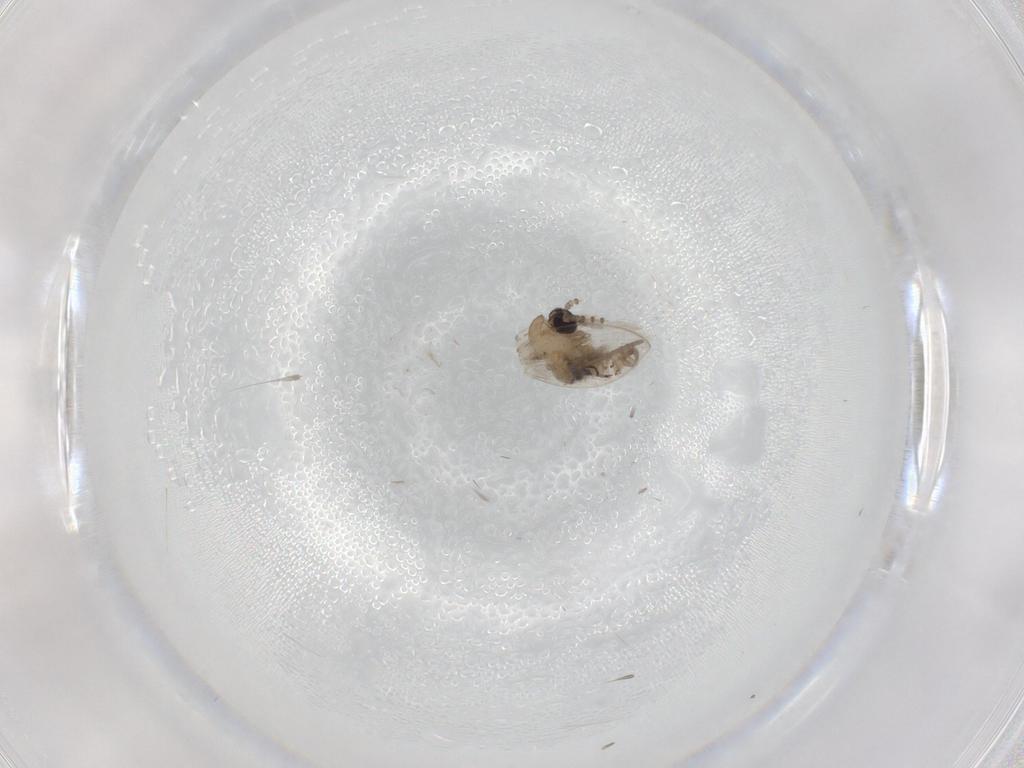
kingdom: Animalia
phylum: Arthropoda
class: Insecta
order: Diptera
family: Psychodidae
